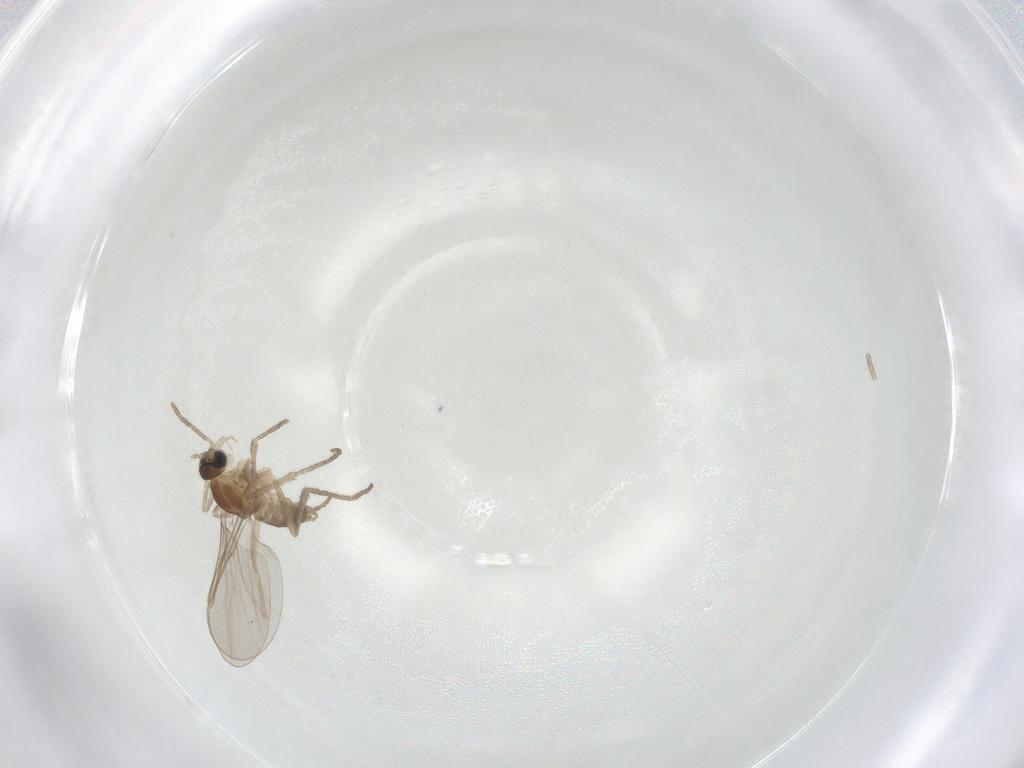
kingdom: Animalia
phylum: Arthropoda
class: Insecta
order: Diptera
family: Cecidomyiidae
